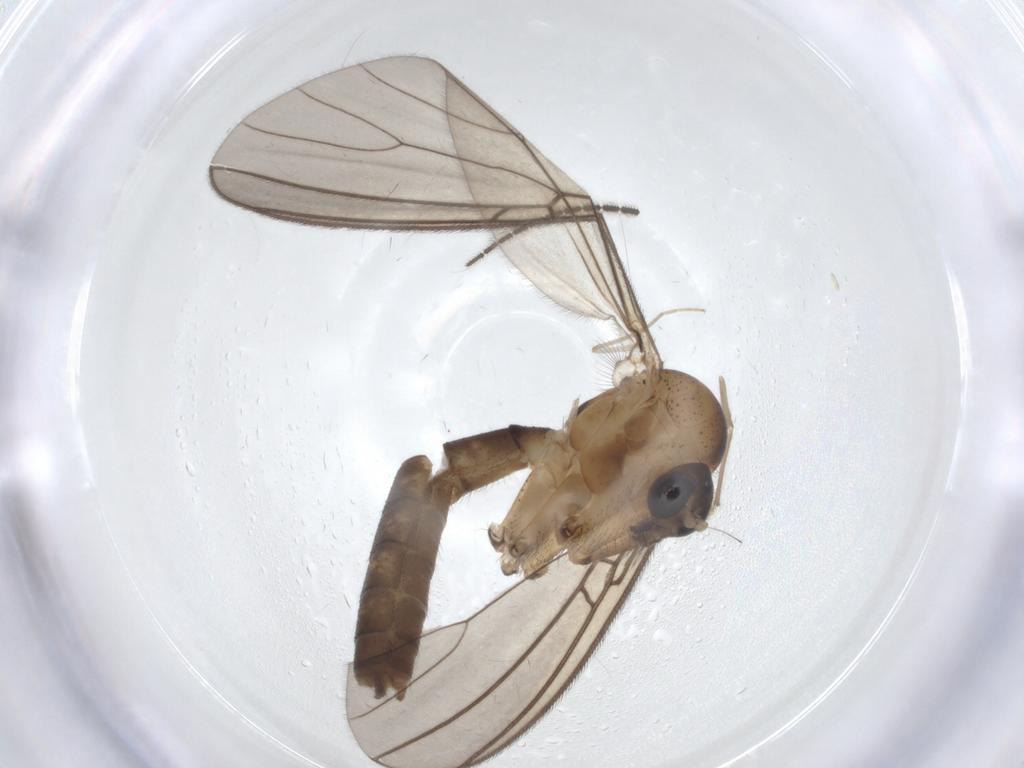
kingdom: Animalia
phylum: Arthropoda
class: Insecta
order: Diptera
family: Mycetophilidae
